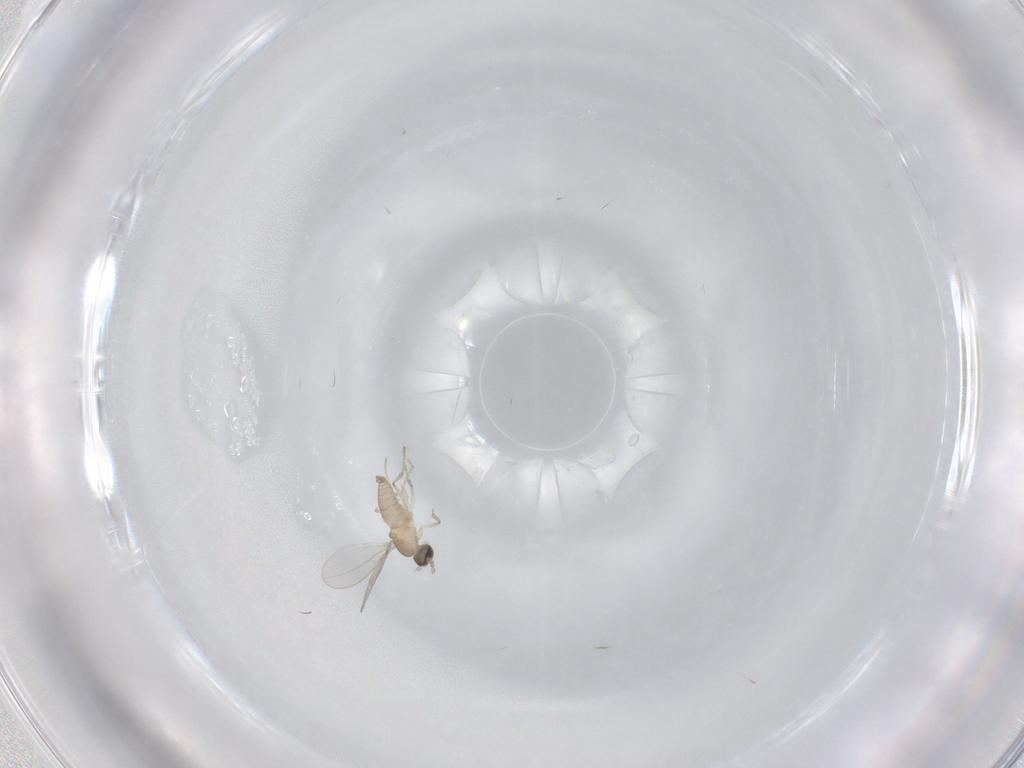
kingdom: Animalia
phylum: Arthropoda
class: Insecta
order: Diptera
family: Cecidomyiidae
